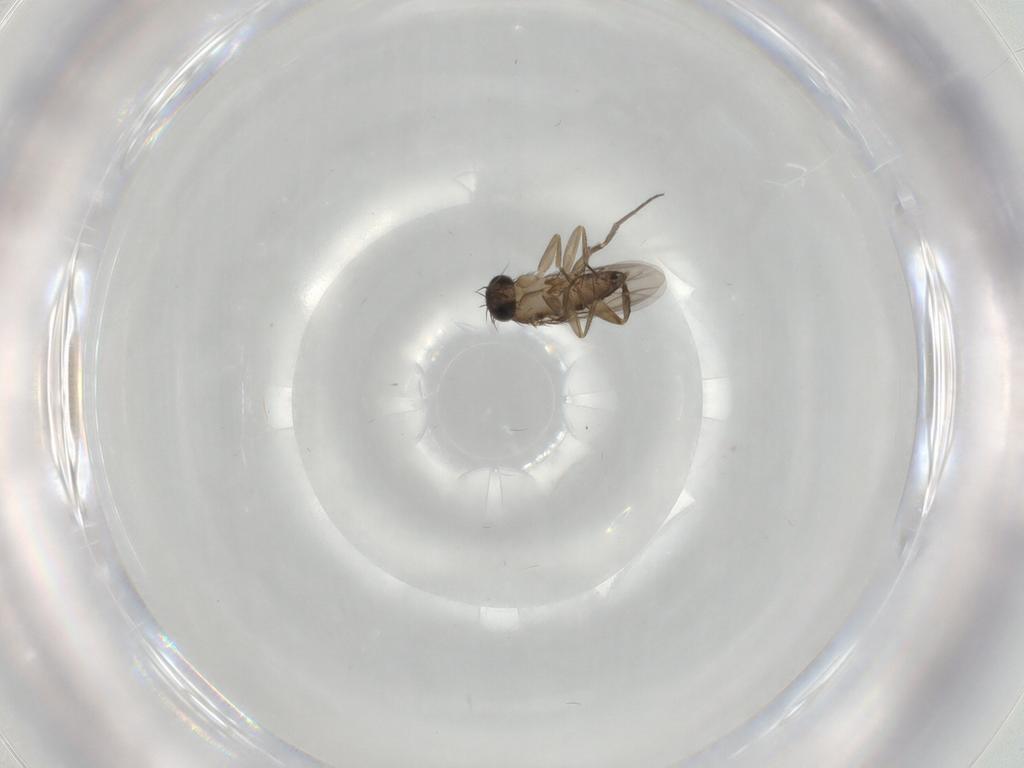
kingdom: Animalia
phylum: Arthropoda
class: Insecta
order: Diptera
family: Phoridae
